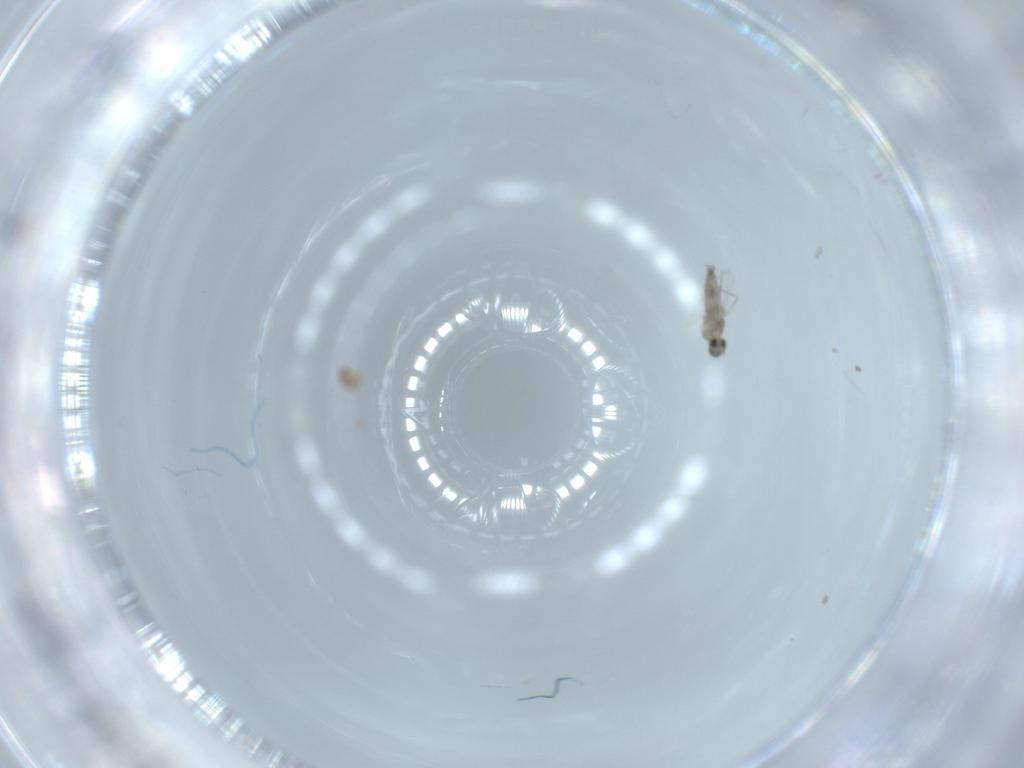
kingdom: Animalia
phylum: Arthropoda
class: Insecta
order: Diptera
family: Cecidomyiidae
